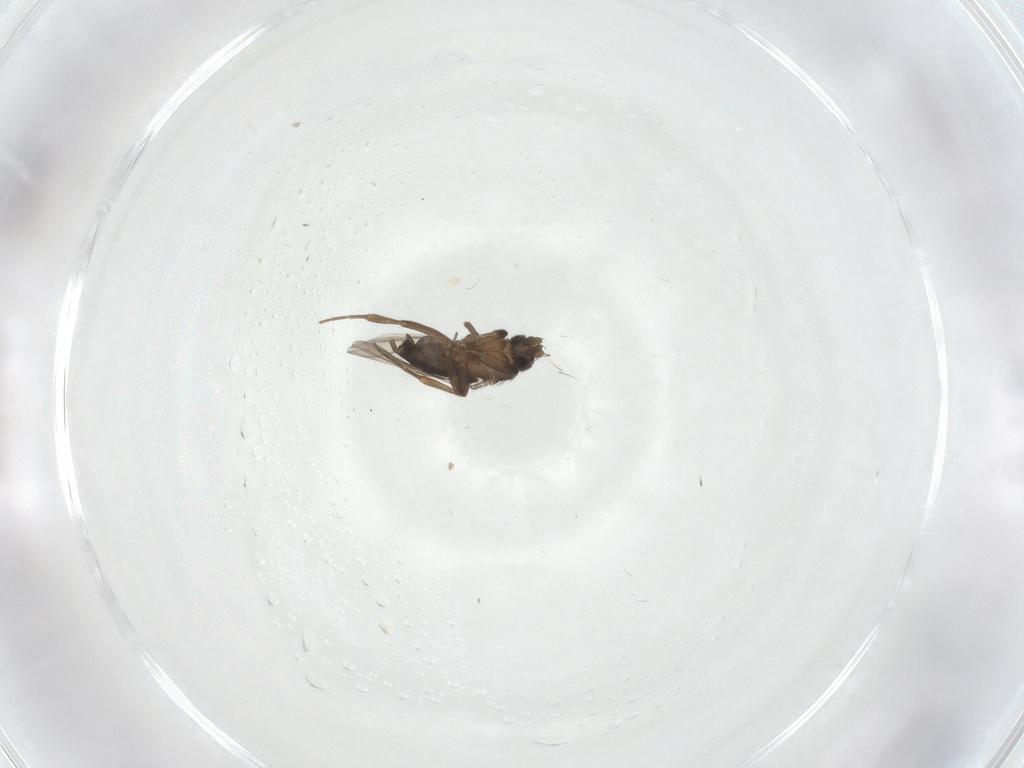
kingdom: Animalia
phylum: Arthropoda
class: Insecta
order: Diptera
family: Phoridae
